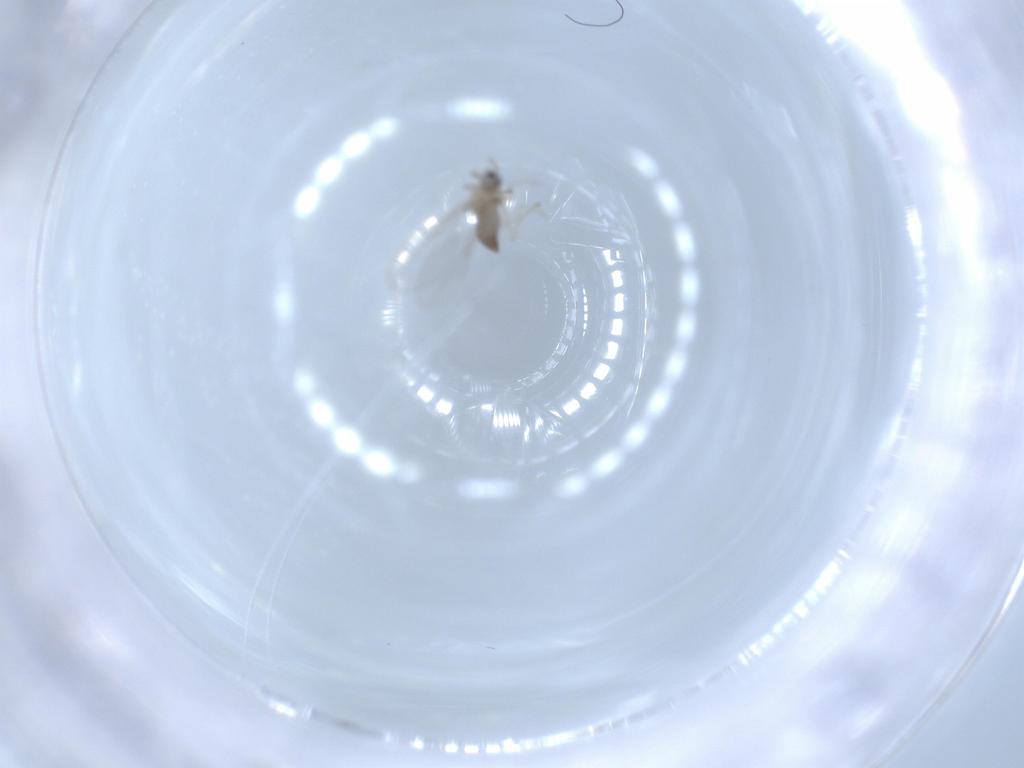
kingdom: Animalia
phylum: Arthropoda
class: Insecta
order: Diptera
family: Cecidomyiidae
